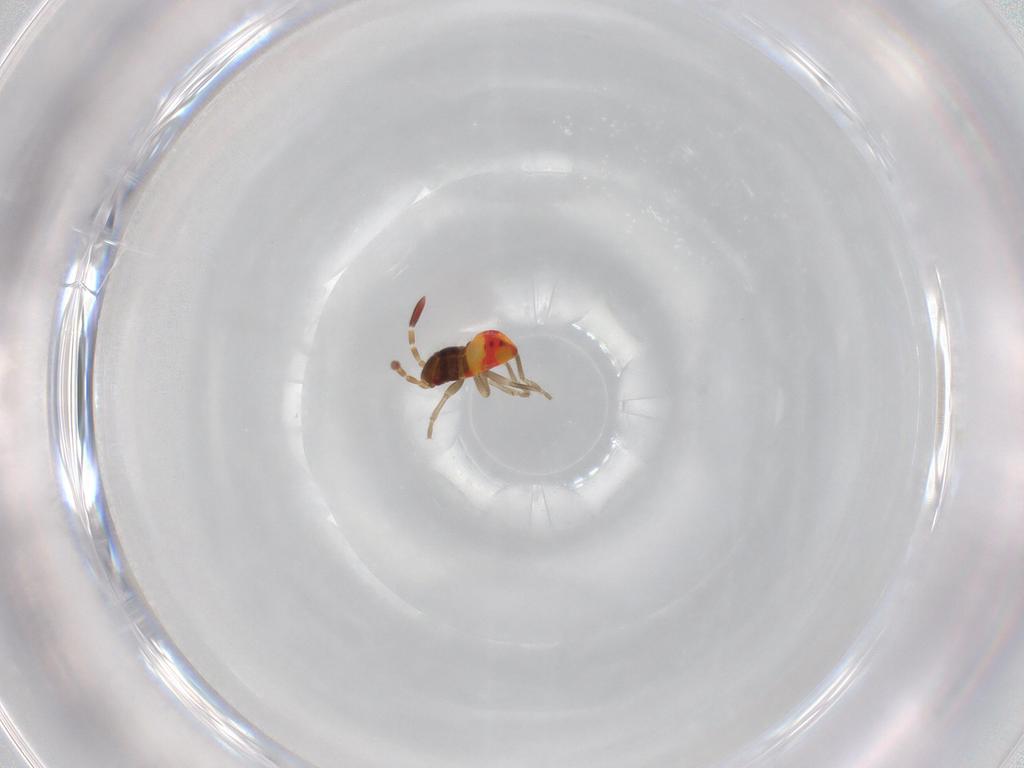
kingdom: Animalia
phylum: Arthropoda
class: Insecta
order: Hemiptera
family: Rhyparochromidae
